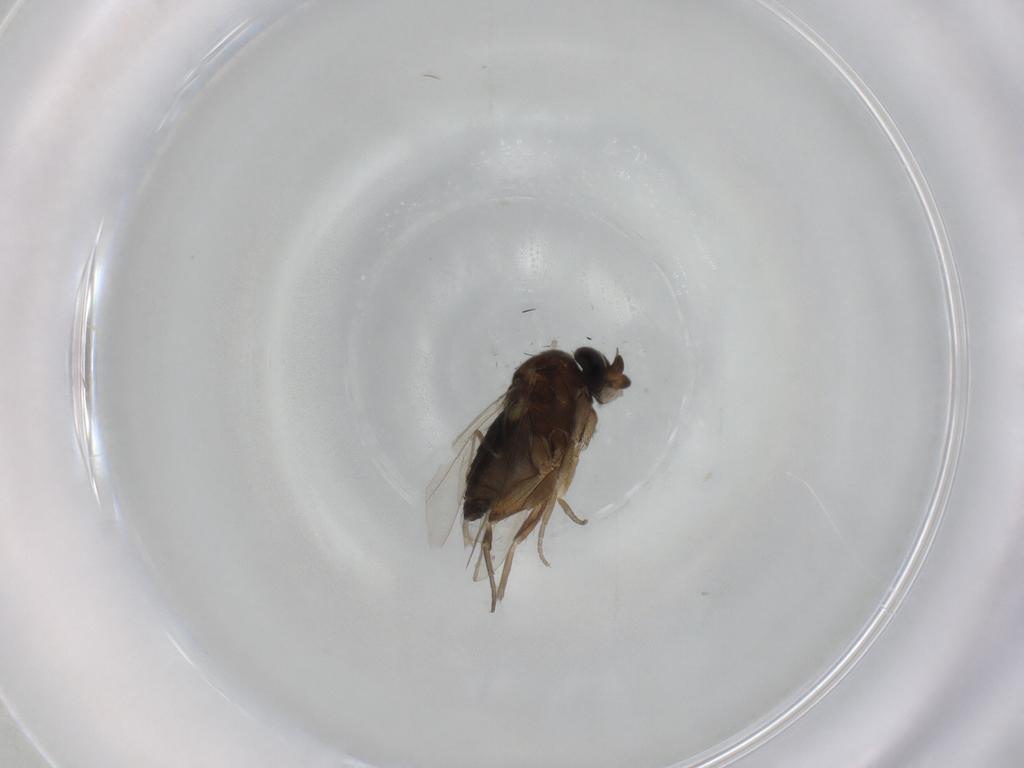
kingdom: Animalia
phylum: Arthropoda
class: Insecta
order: Diptera
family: Phoridae
